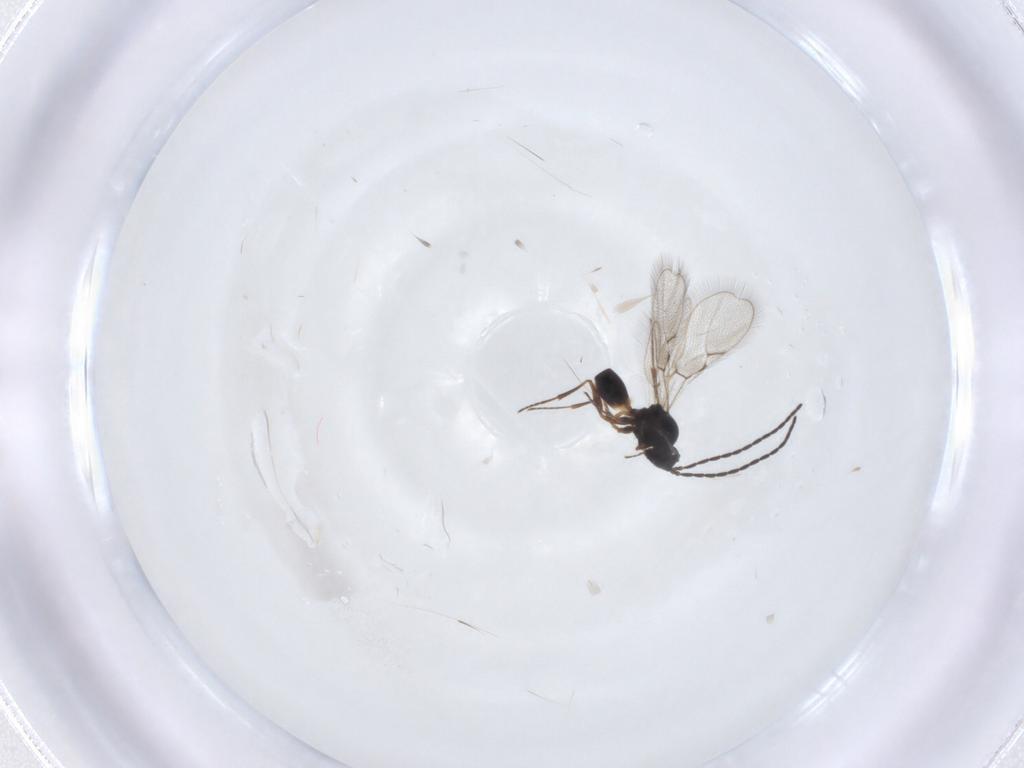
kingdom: Animalia
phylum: Arthropoda
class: Insecta
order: Hymenoptera
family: Figitidae
